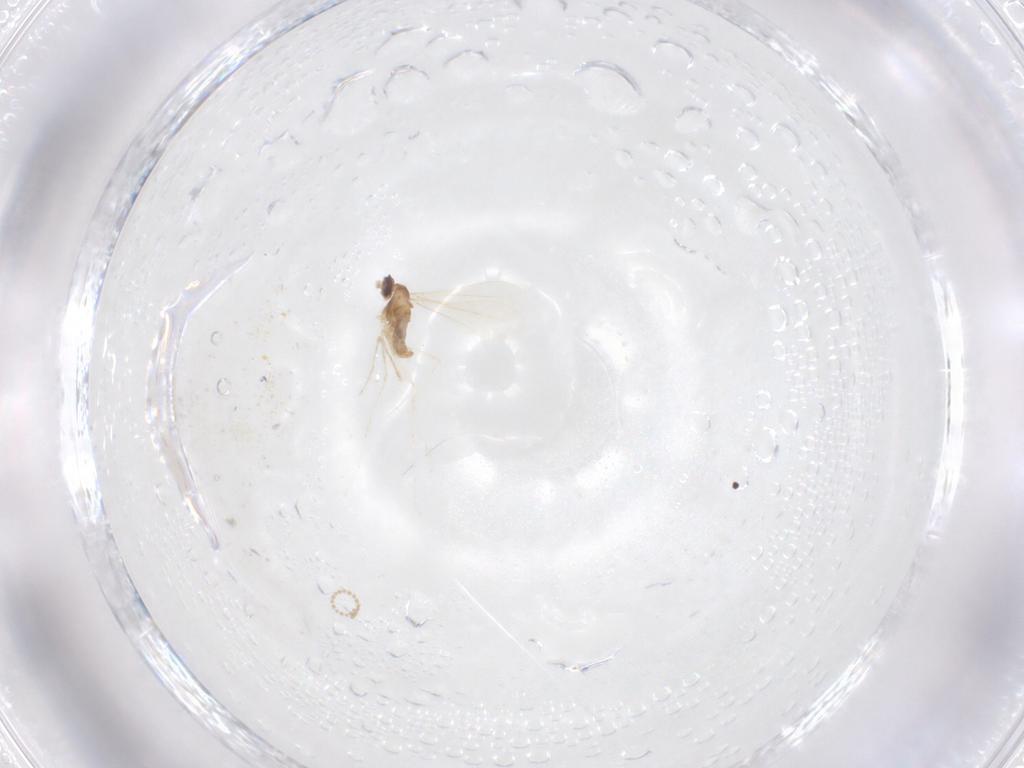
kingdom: Animalia
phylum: Arthropoda
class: Insecta
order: Diptera
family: Cecidomyiidae
